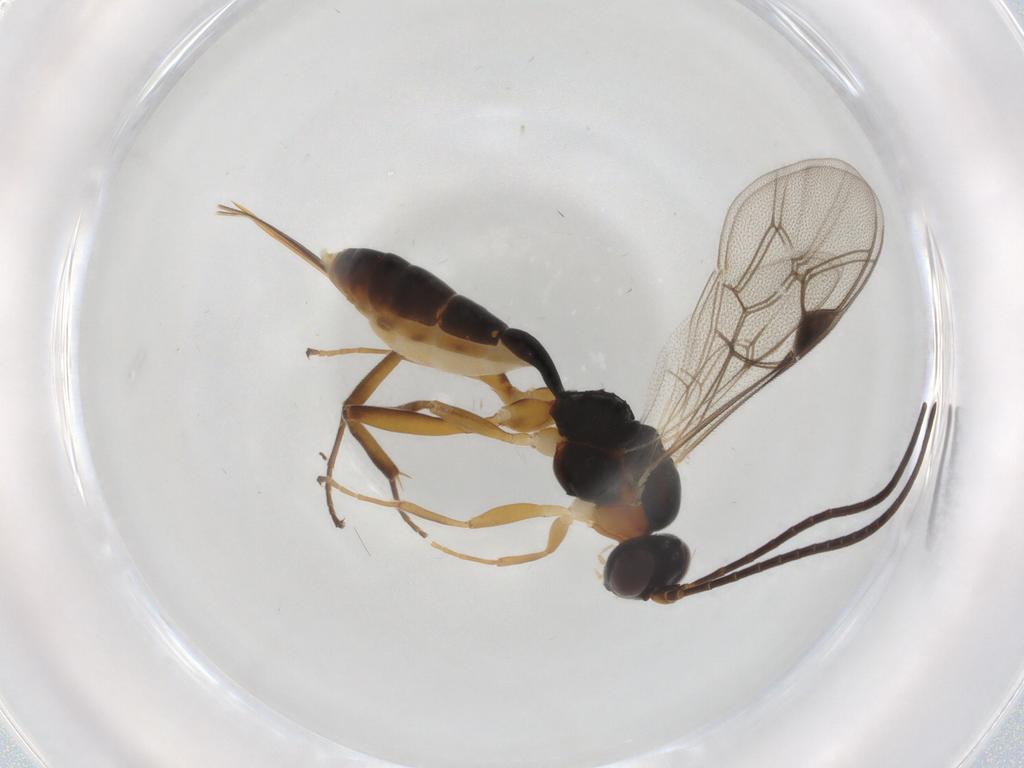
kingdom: Animalia
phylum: Arthropoda
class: Insecta
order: Hymenoptera
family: Ichneumonidae
